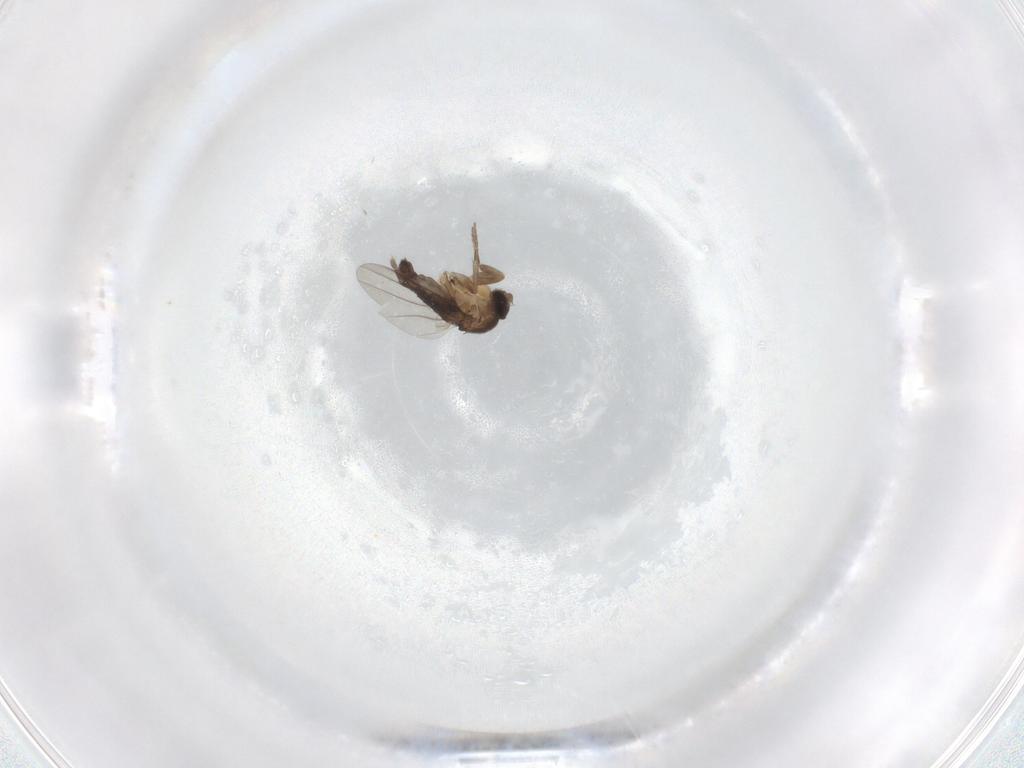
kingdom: Animalia
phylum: Arthropoda
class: Insecta
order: Diptera
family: Phoridae
